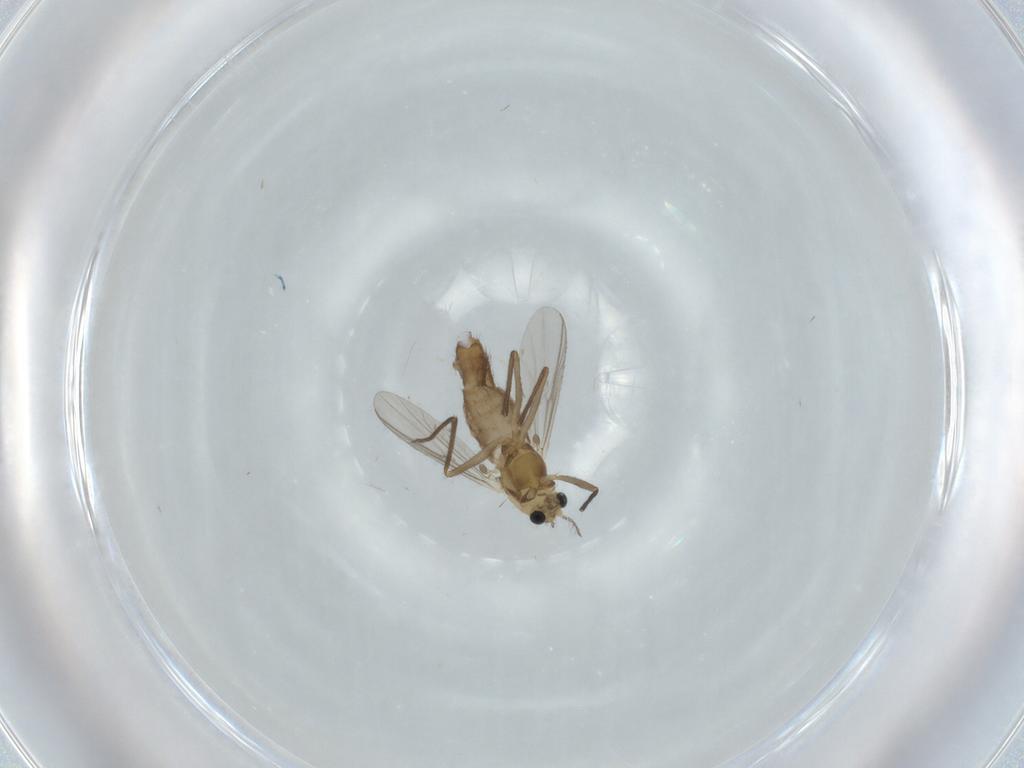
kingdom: Animalia
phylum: Arthropoda
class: Insecta
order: Diptera
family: Chironomidae
